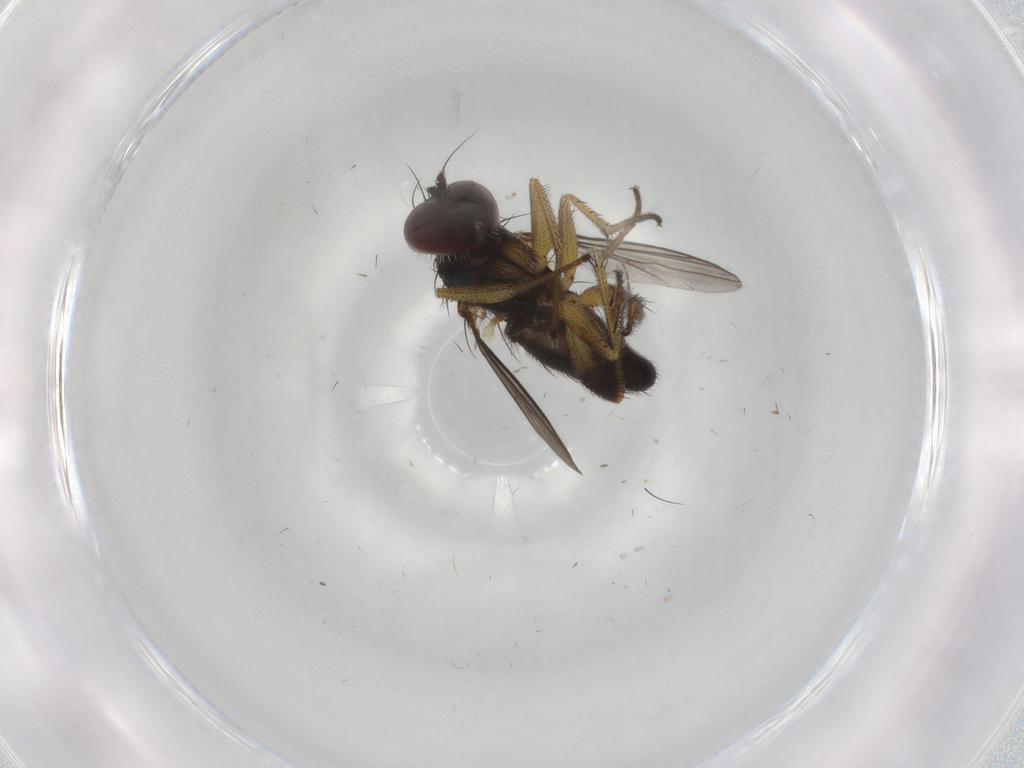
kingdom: Animalia
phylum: Arthropoda
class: Insecta
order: Diptera
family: Dolichopodidae
